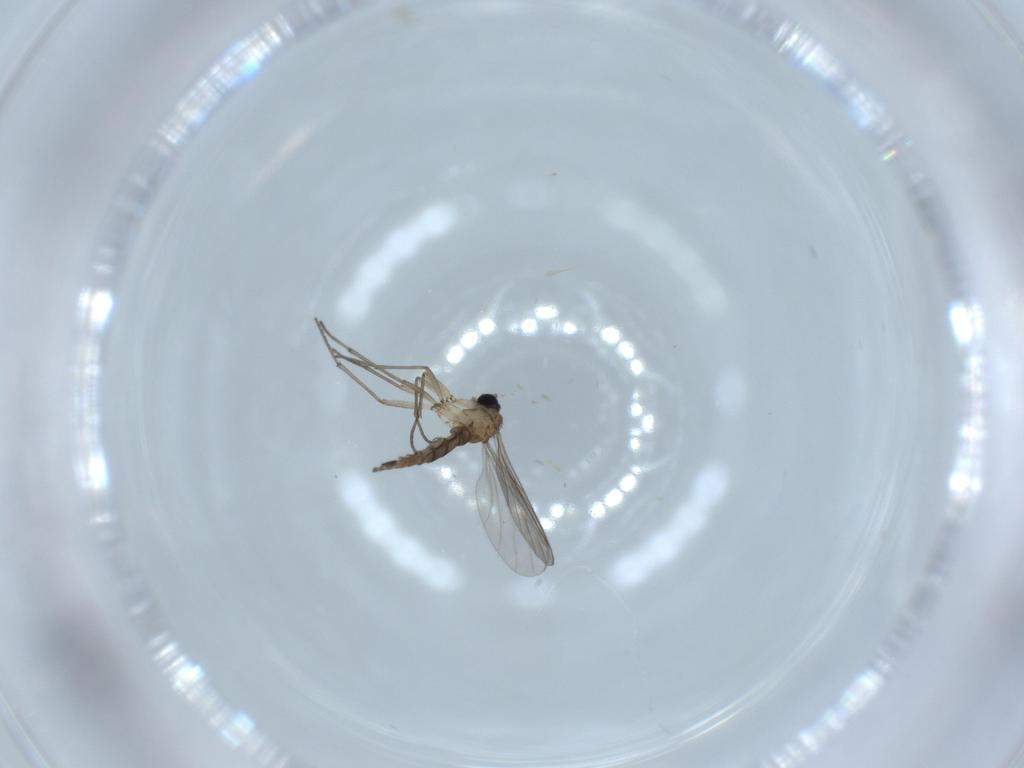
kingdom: Animalia
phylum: Arthropoda
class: Insecta
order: Diptera
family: Sciaridae
